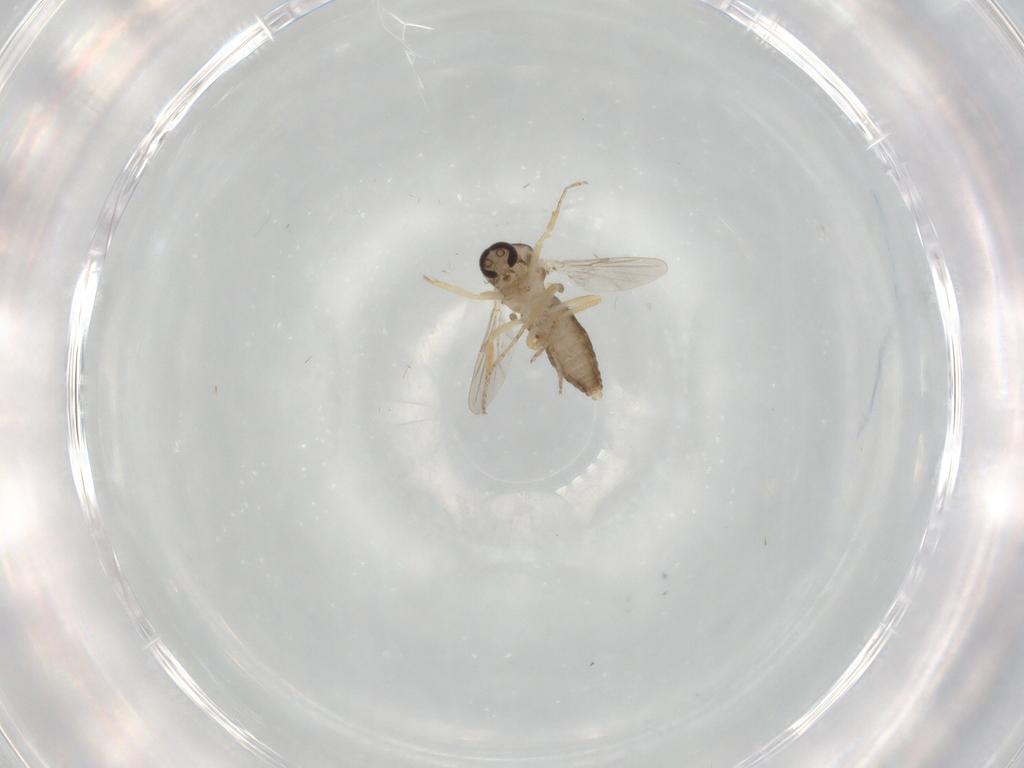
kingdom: Animalia
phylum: Arthropoda
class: Insecta
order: Diptera
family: Ceratopogonidae
